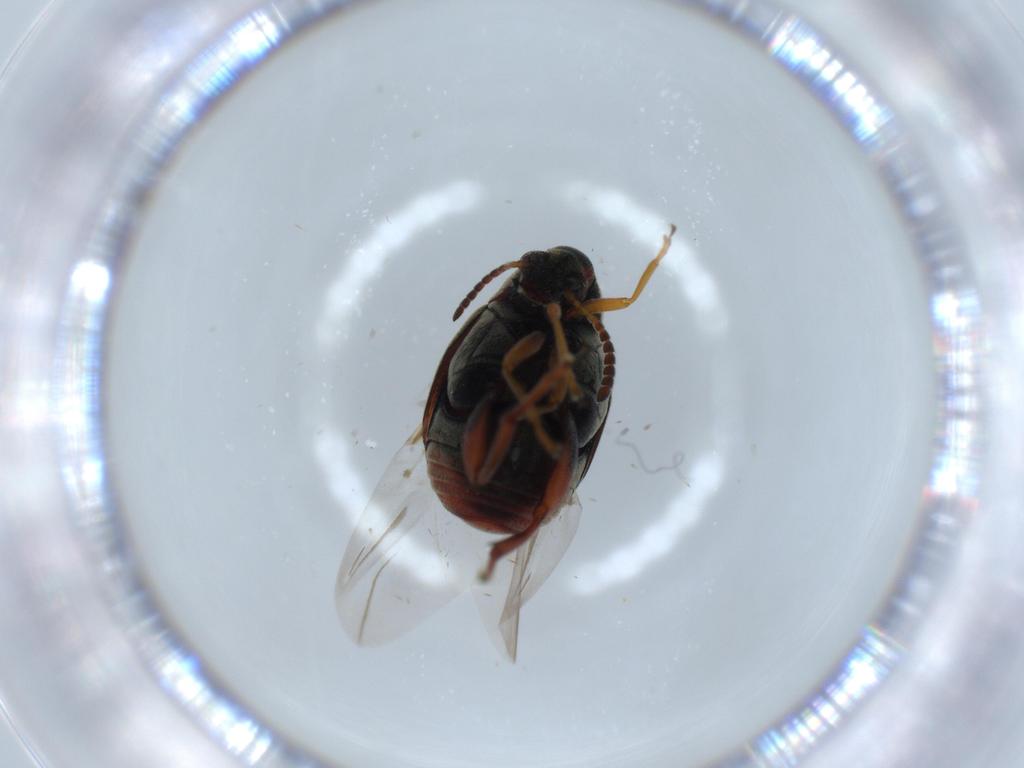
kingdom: Animalia
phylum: Arthropoda
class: Insecta
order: Coleoptera
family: Chrysomelidae
